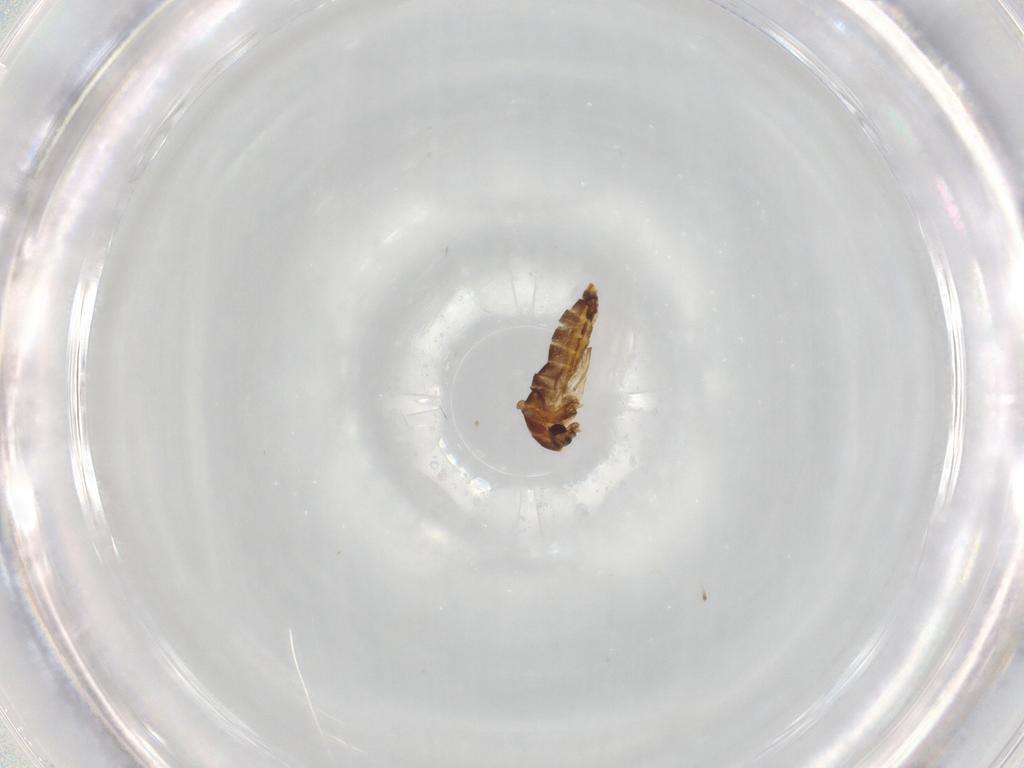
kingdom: Animalia
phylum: Arthropoda
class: Insecta
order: Diptera
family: Chironomidae
